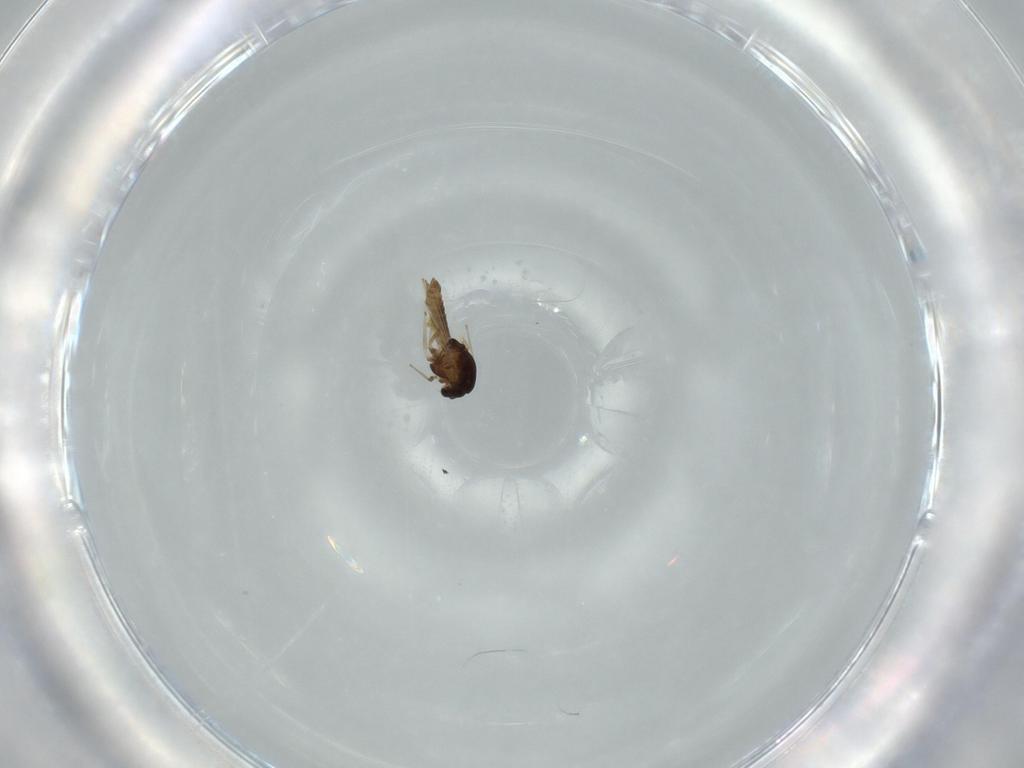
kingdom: Animalia
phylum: Arthropoda
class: Insecta
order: Diptera
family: Chironomidae
